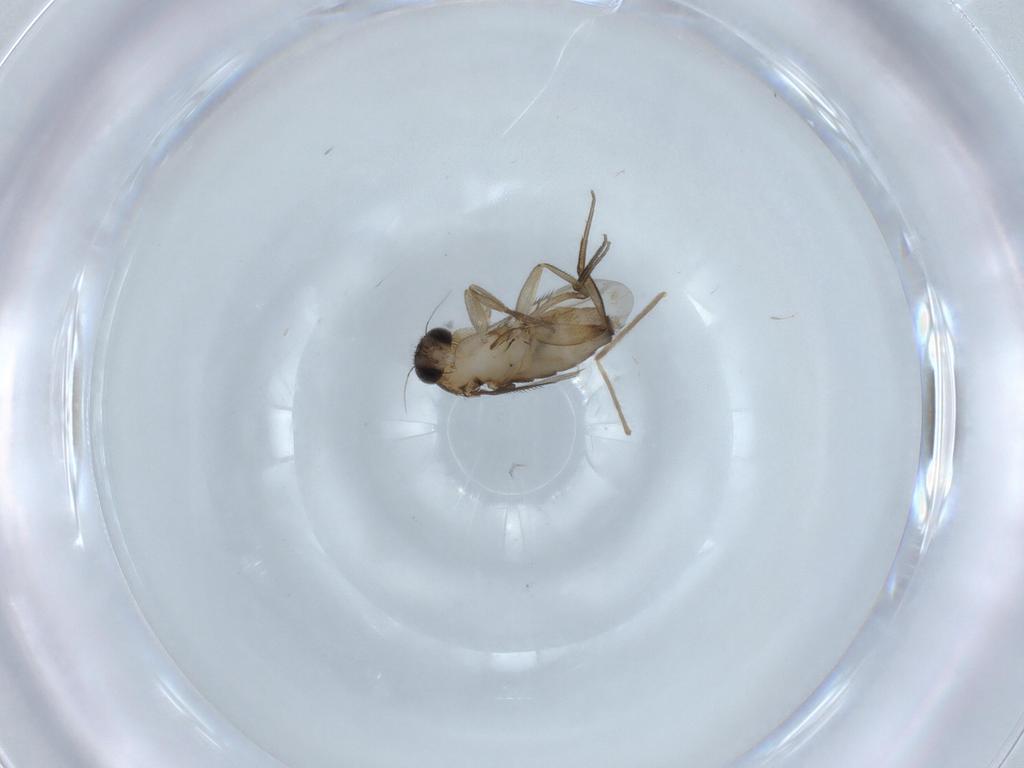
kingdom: Animalia
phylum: Arthropoda
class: Insecta
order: Diptera
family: Phoridae
